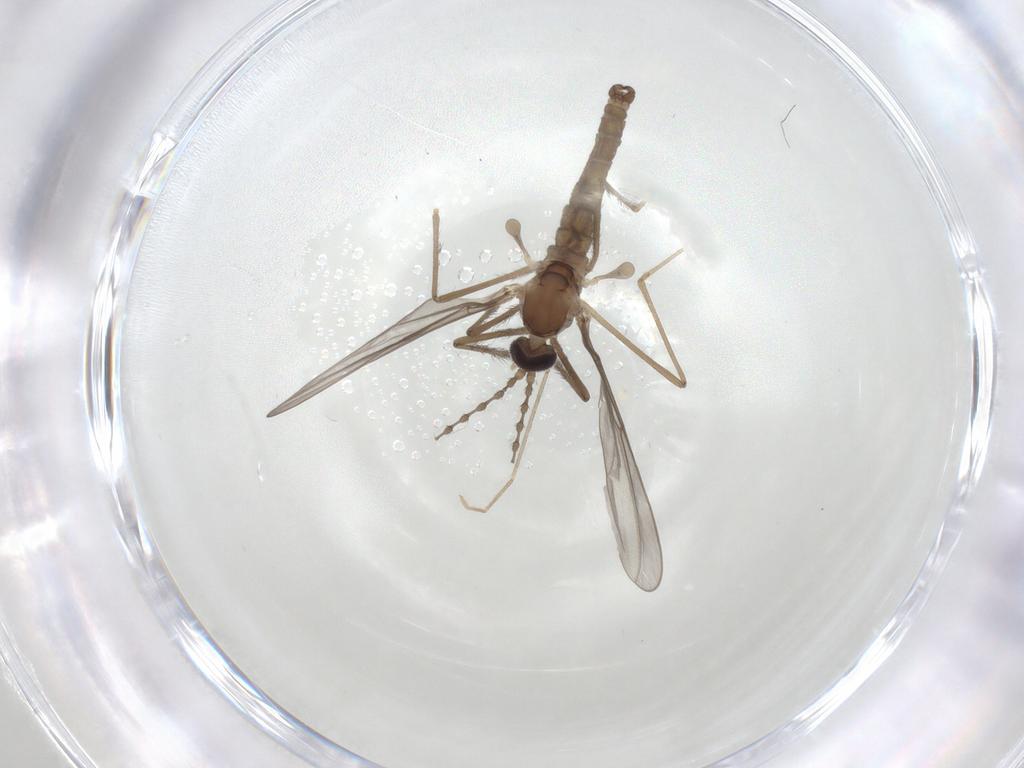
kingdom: Animalia
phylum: Arthropoda
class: Insecta
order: Diptera
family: Cecidomyiidae
